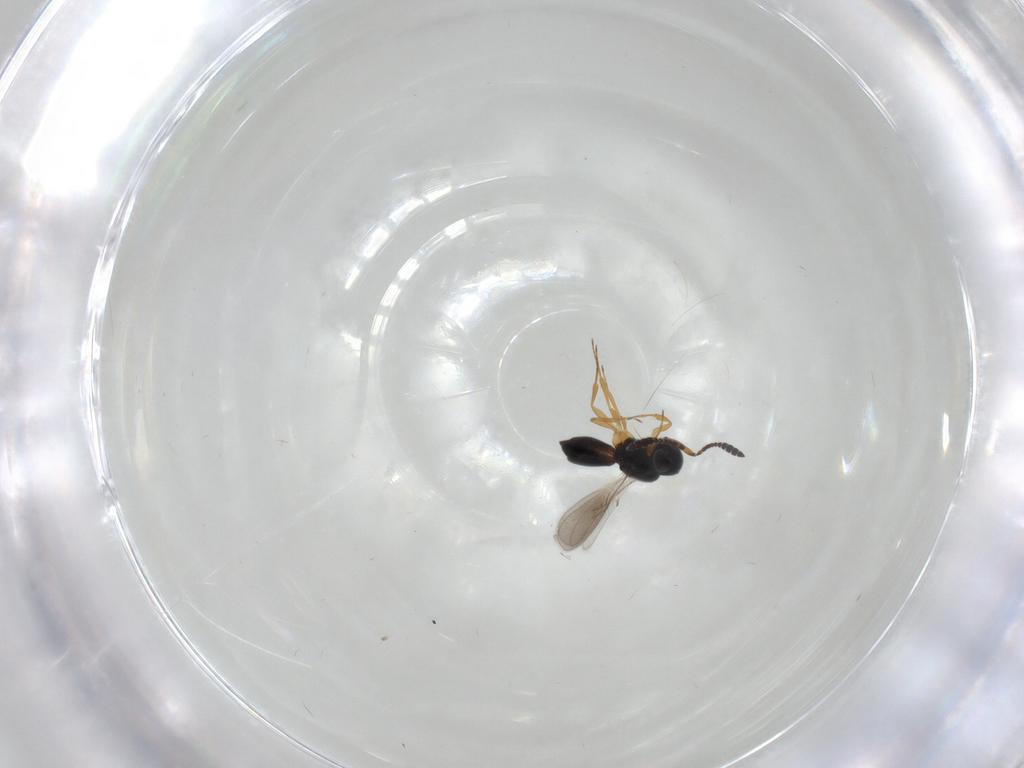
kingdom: Animalia
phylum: Arthropoda
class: Insecta
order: Hymenoptera
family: Scelionidae
